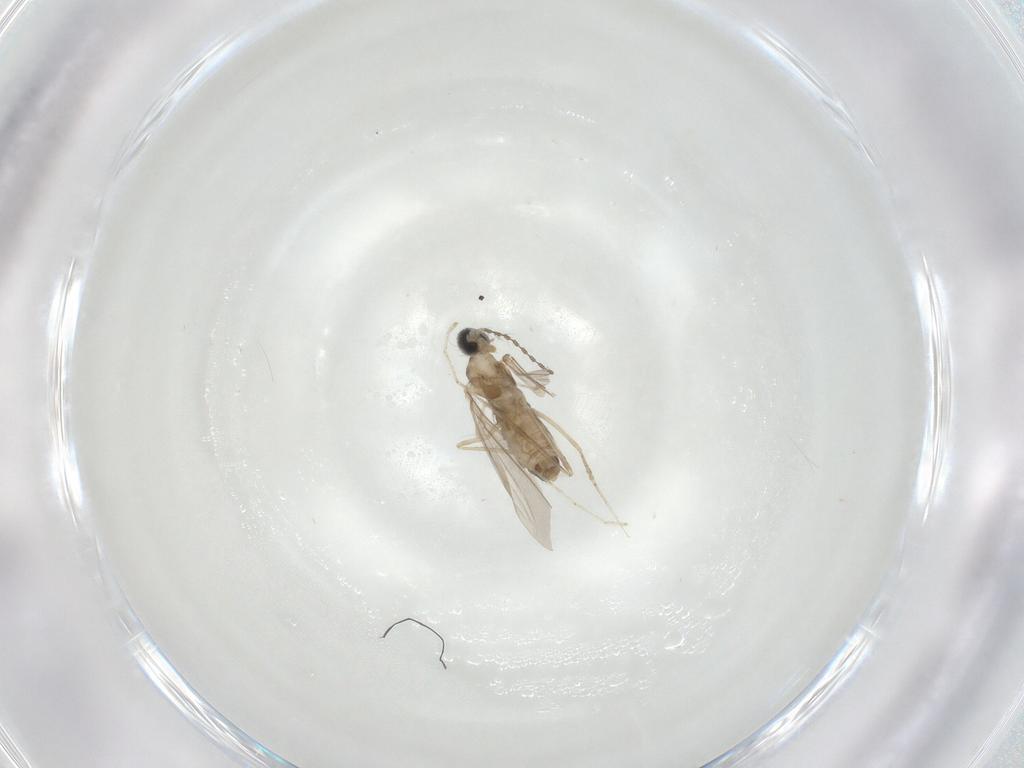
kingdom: Animalia
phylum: Arthropoda
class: Insecta
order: Diptera
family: Cecidomyiidae
